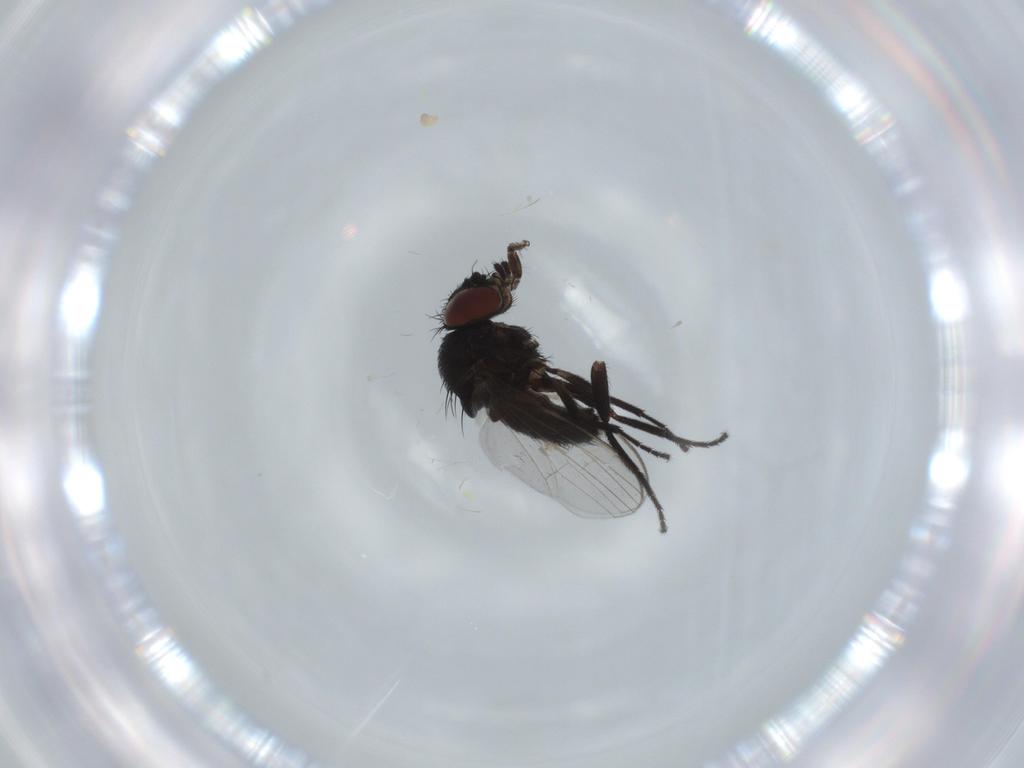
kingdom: Animalia
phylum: Arthropoda
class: Insecta
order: Diptera
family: Milichiidae
